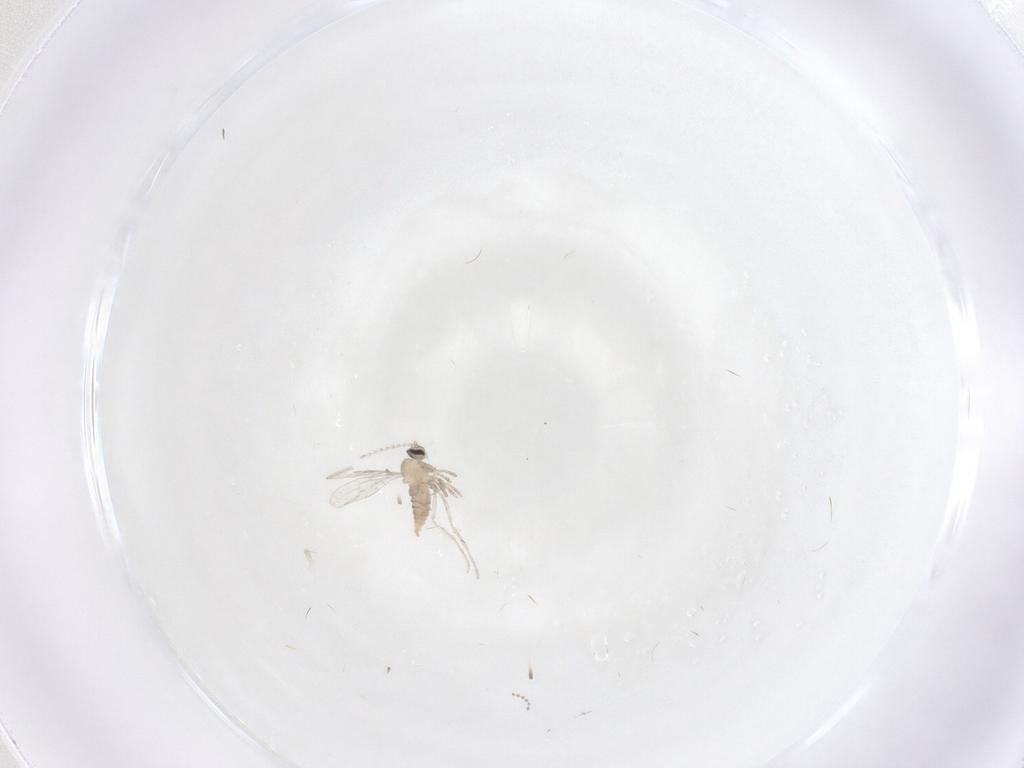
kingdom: Animalia
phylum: Arthropoda
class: Insecta
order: Diptera
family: Cecidomyiidae
